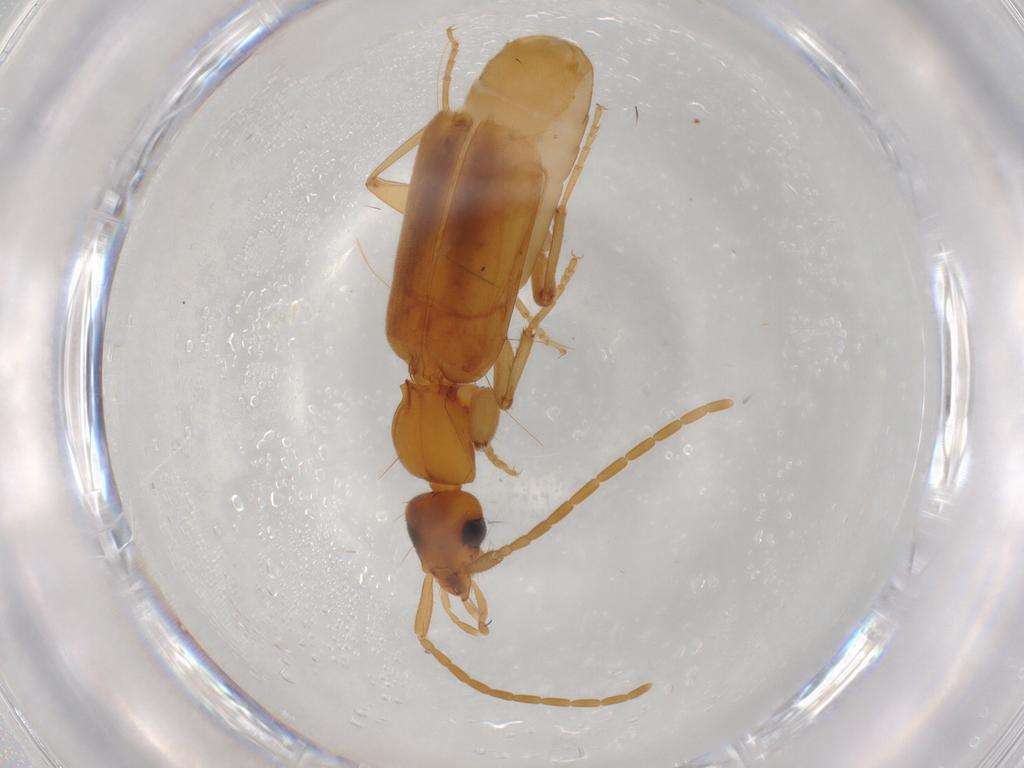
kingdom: Animalia
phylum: Arthropoda
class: Insecta
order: Coleoptera
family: Carabidae
